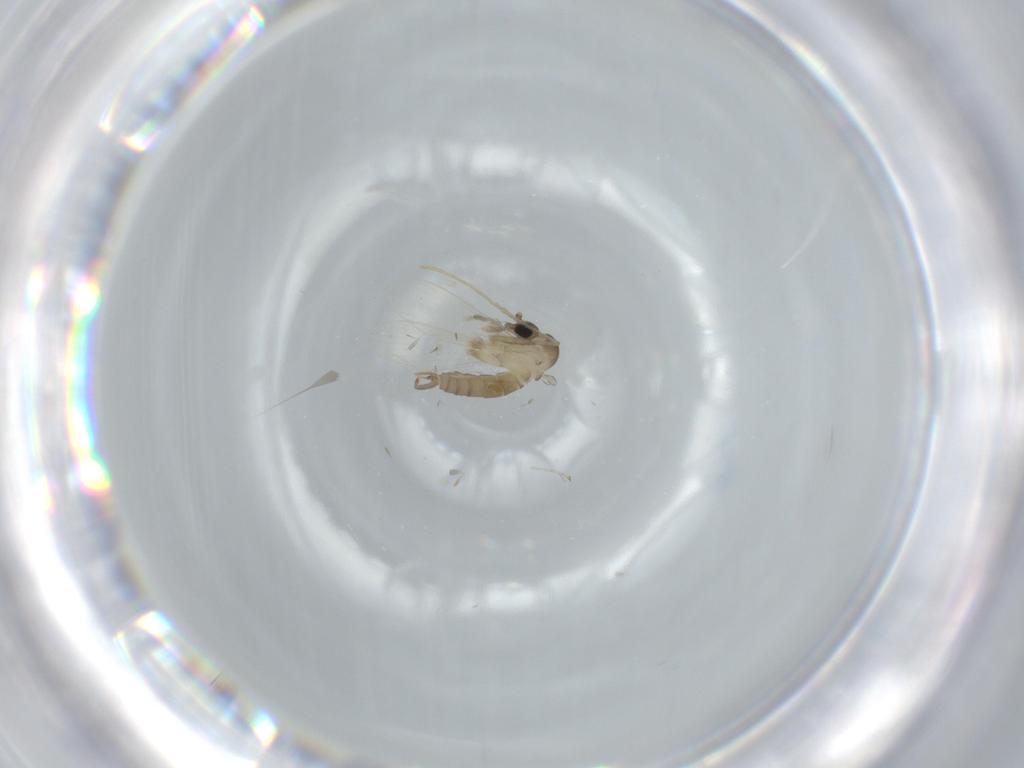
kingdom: Animalia
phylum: Arthropoda
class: Insecta
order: Diptera
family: Cecidomyiidae
